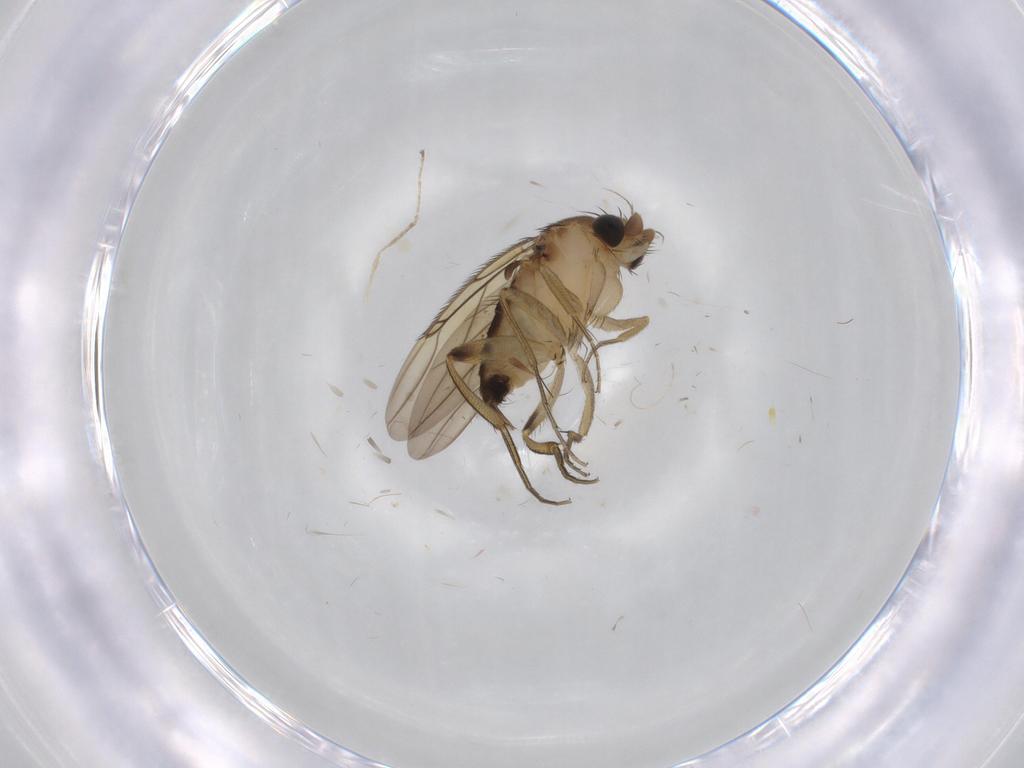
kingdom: Animalia
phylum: Arthropoda
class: Insecta
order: Diptera
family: Phoridae
